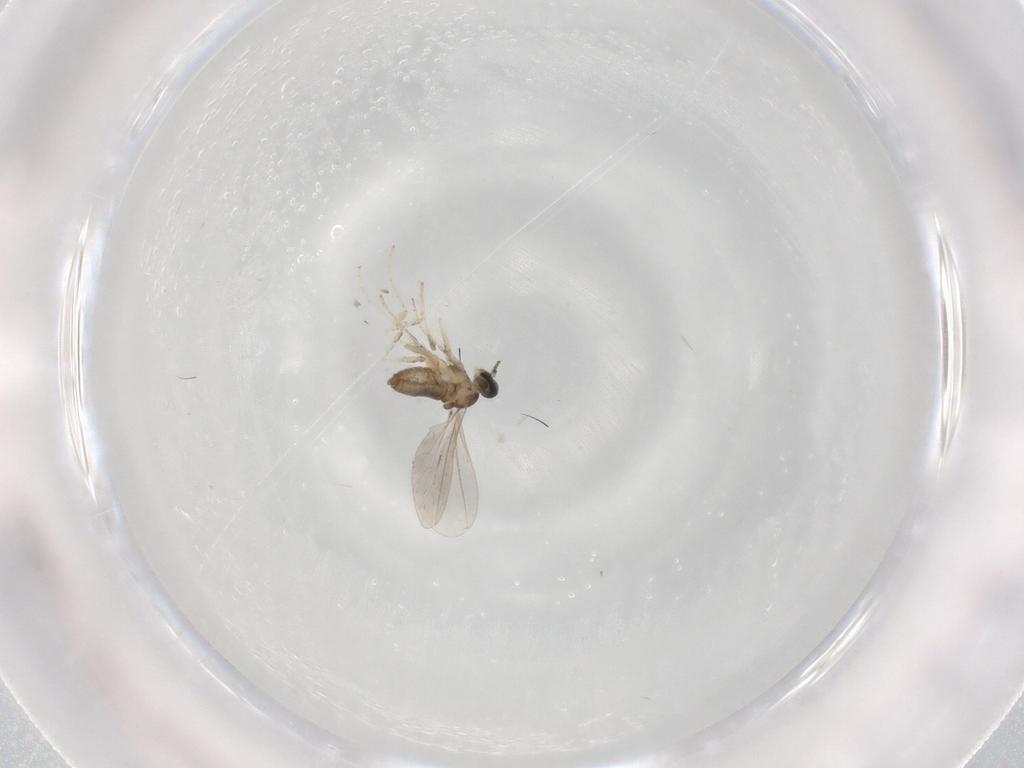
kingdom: Animalia
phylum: Arthropoda
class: Insecta
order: Diptera
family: Cecidomyiidae
